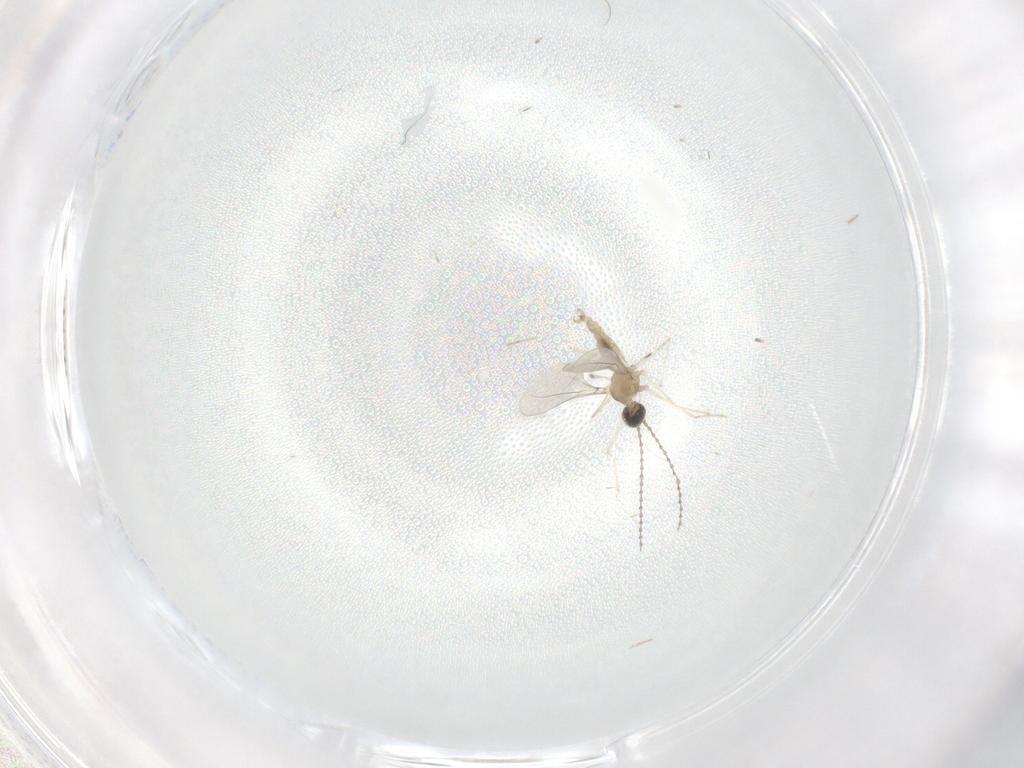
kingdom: Animalia
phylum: Arthropoda
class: Insecta
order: Diptera
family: Cecidomyiidae
